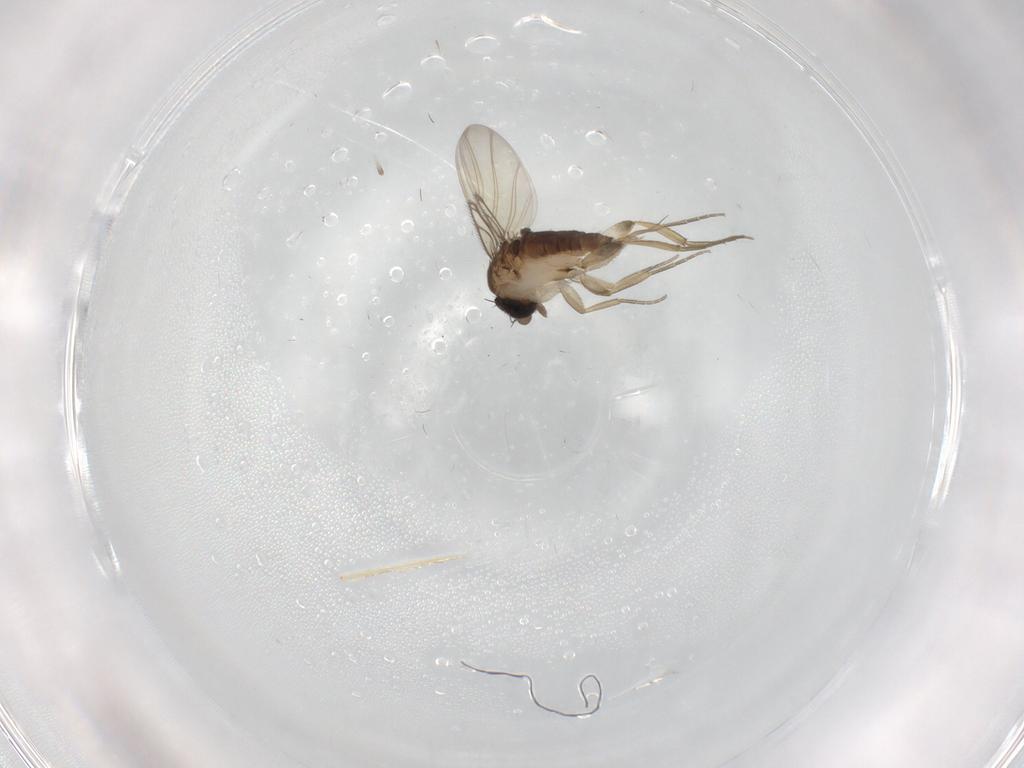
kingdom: Animalia
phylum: Arthropoda
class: Insecta
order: Diptera
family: Phoridae
